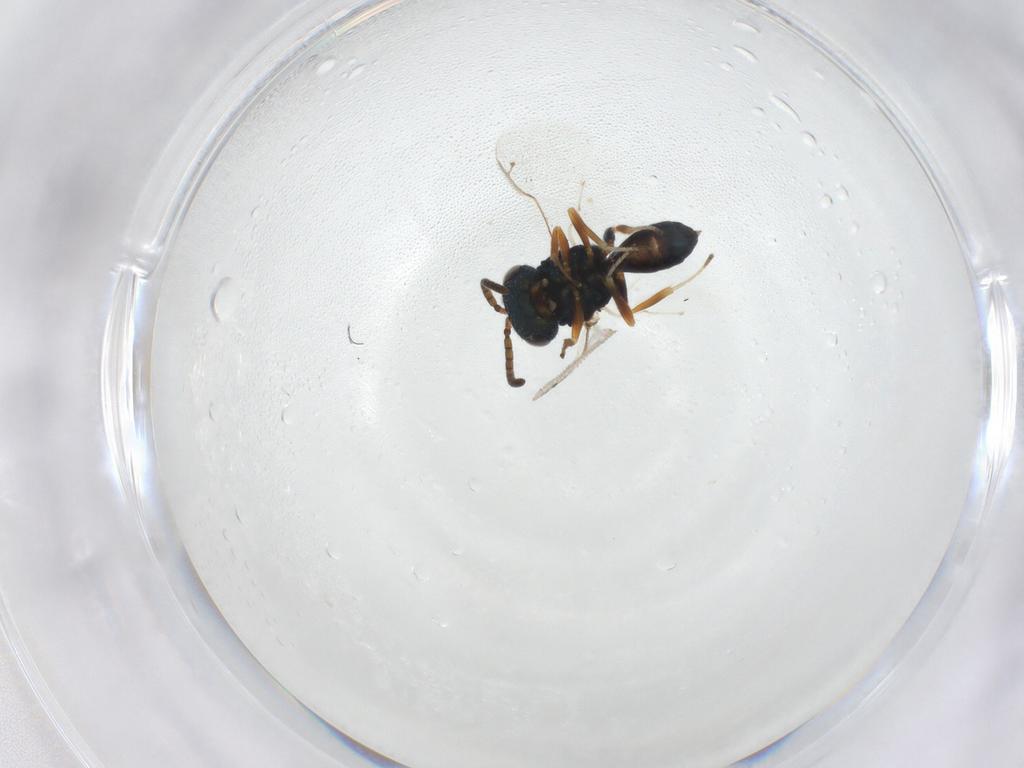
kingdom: Animalia
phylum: Arthropoda
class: Insecta
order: Hymenoptera
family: Pteromalidae
